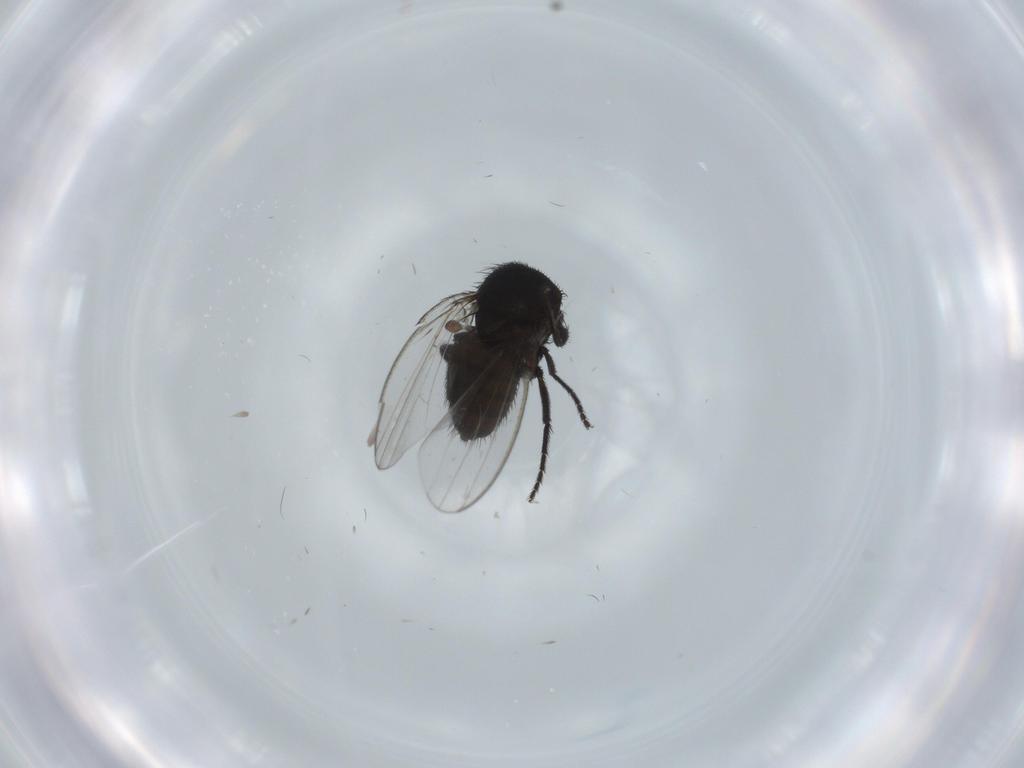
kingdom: Animalia
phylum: Arthropoda
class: Insecta
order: Diptera
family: Milichiidae
